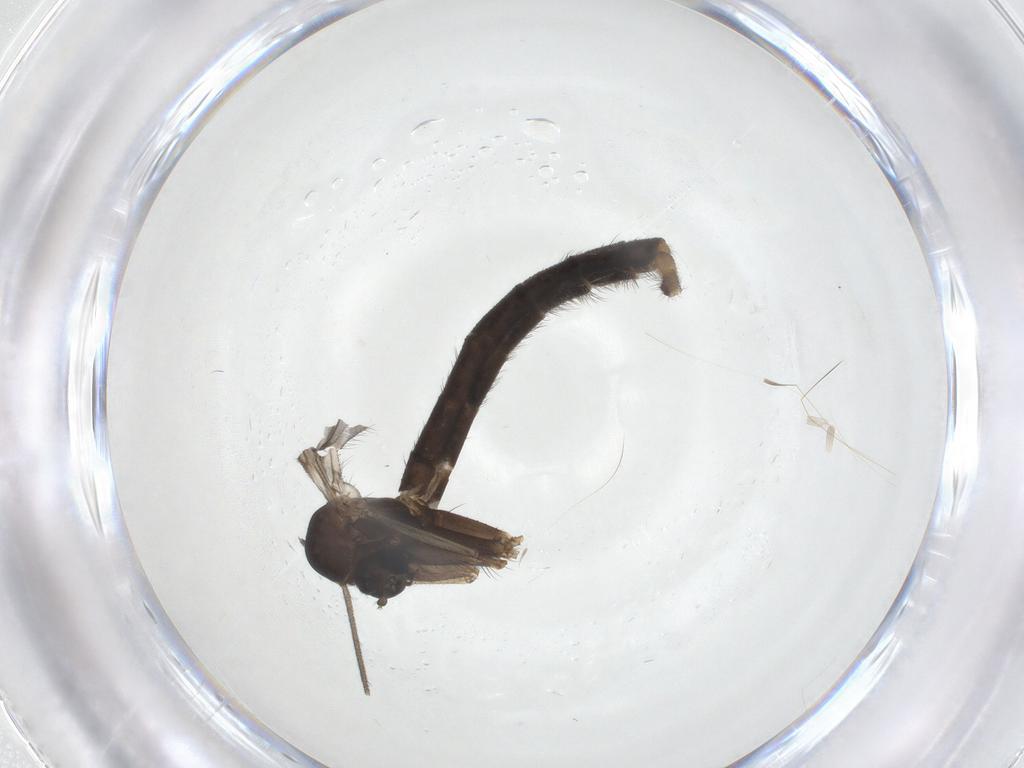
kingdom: Animalia
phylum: Arthropoda
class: Insecta
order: Diptera
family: Tachinidae
